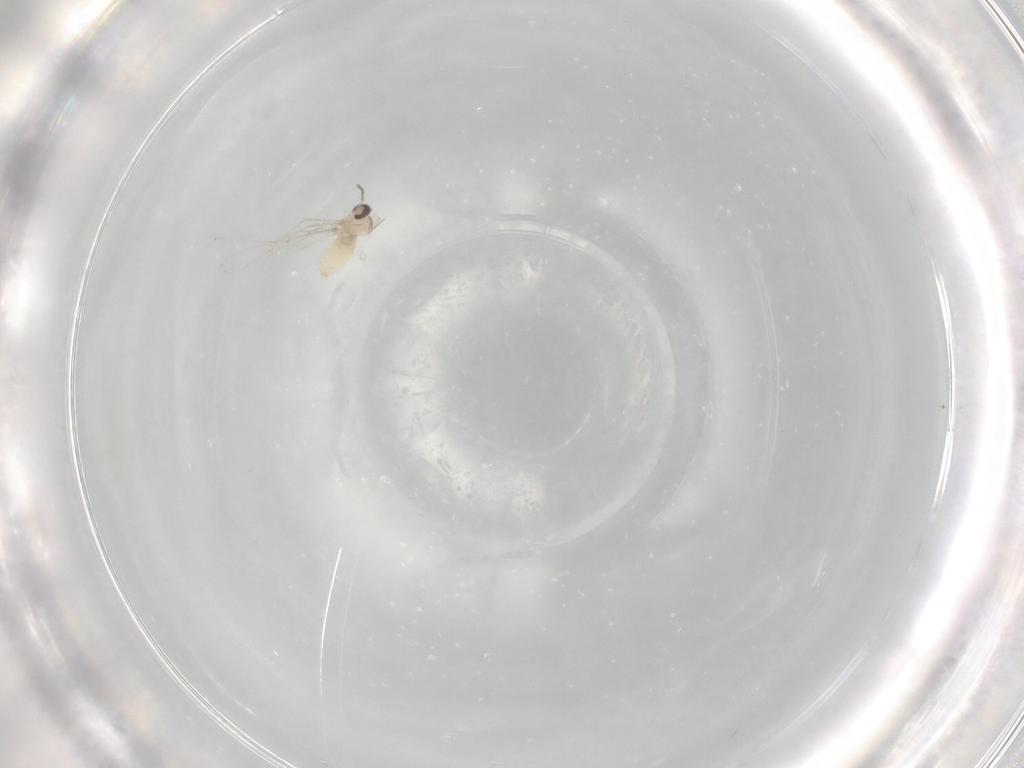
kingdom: Animalia
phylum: Arthropoda
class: Insecta
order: Diptera
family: Cecidomyiidae
